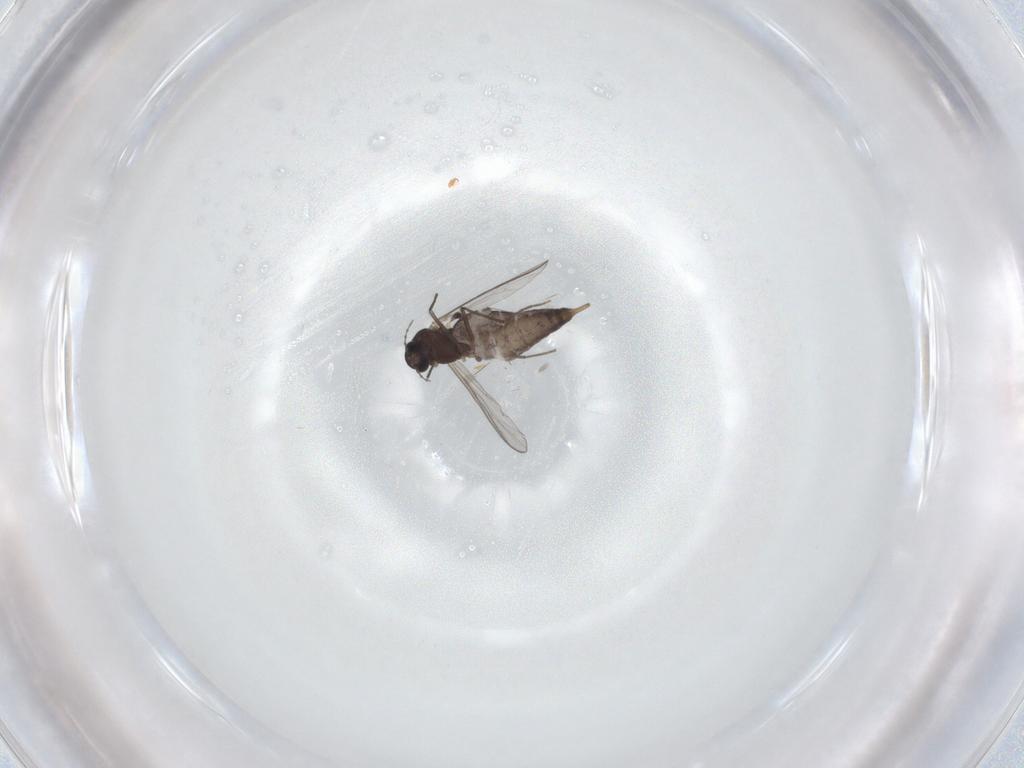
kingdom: Animalia
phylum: Arthropoda
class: Insecta
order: Diptera
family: Chironomidae
